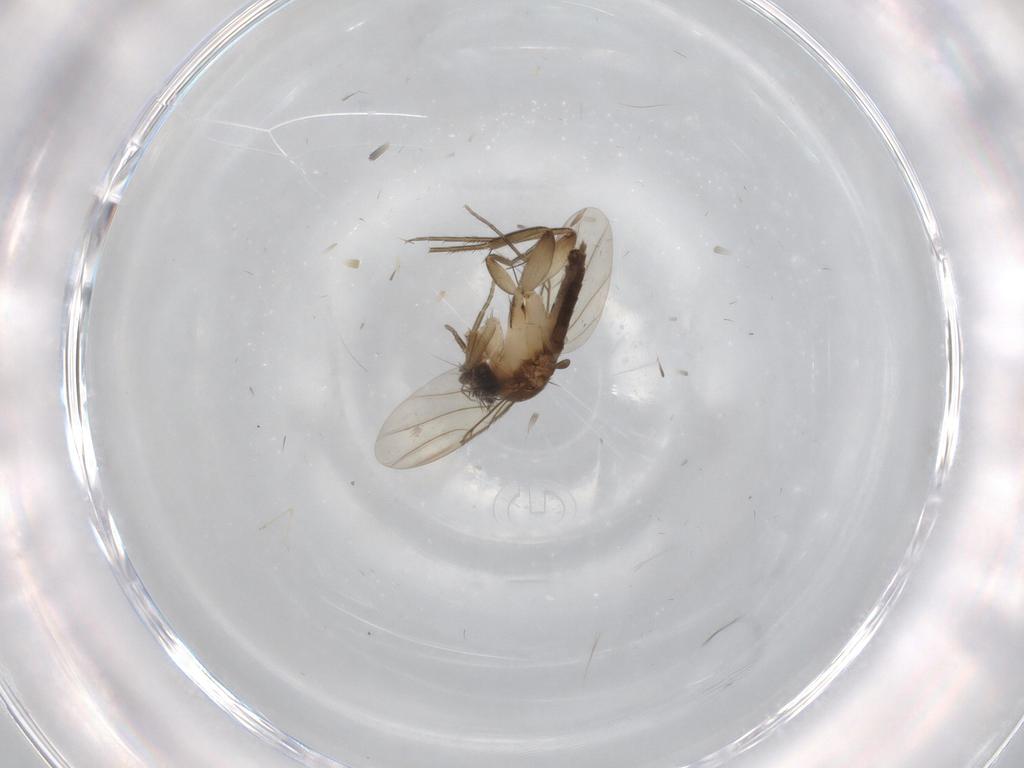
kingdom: Animalia
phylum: Arthropoda
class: Insecta
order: Diptera
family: Phoridae
